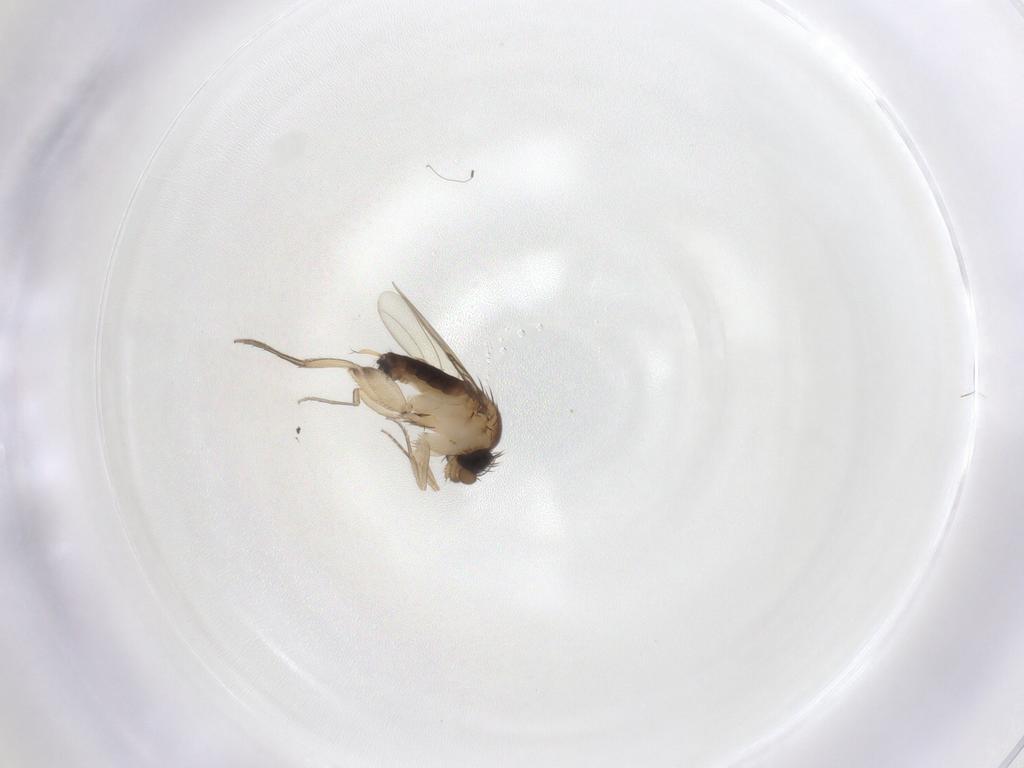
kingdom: Animalia
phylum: Arthropoda
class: Insecta
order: Diptera
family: Phoridae
